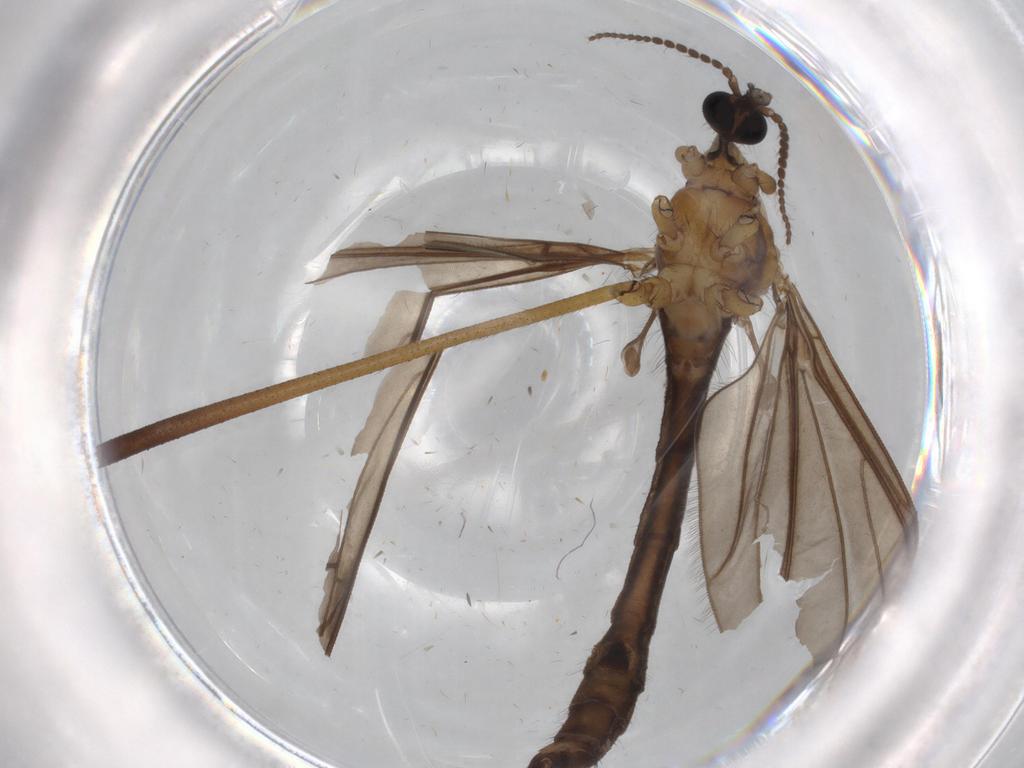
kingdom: Animalia
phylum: Arthropoda
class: Insecta
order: Diptera
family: Limoniidae
